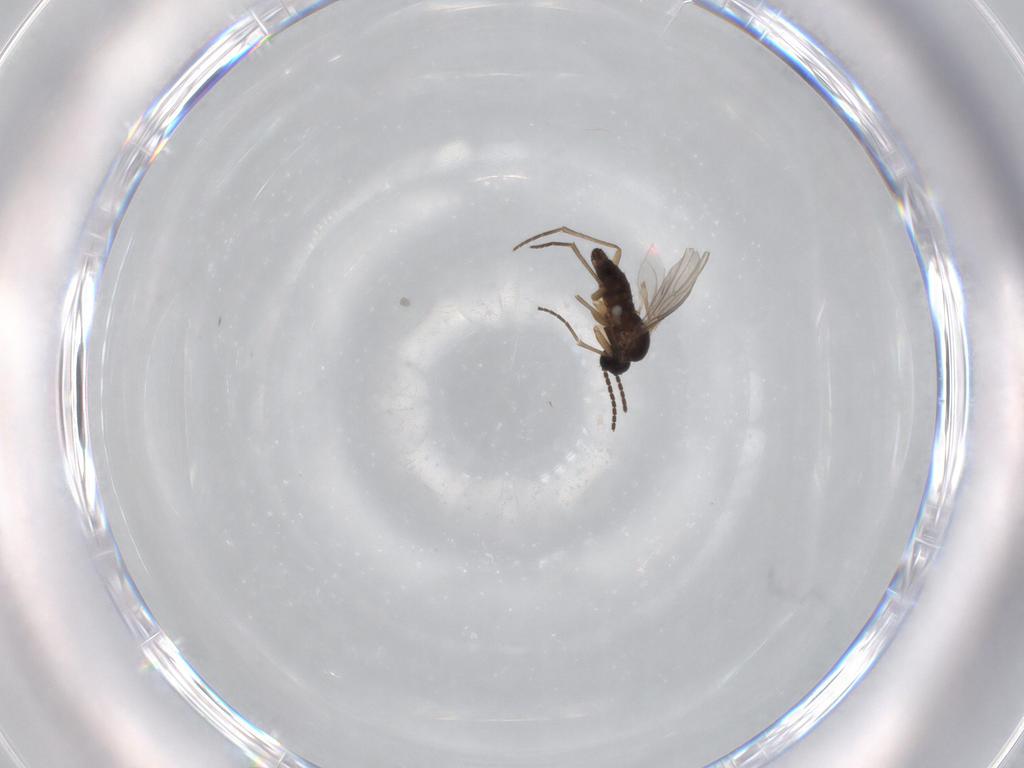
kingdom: Animalia
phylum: Arthropoda
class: Insecta
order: Diptera
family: Sciaridae
